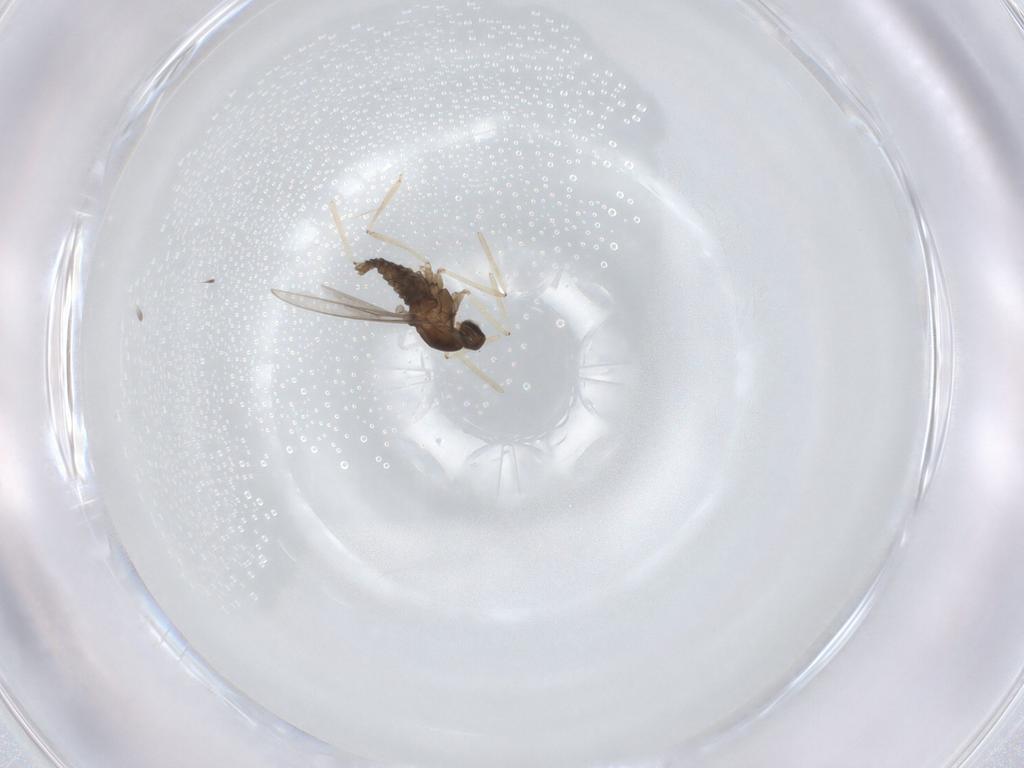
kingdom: Animalia
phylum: Arthropoda
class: Insecta
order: Diptera
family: Cecidomyiidae
